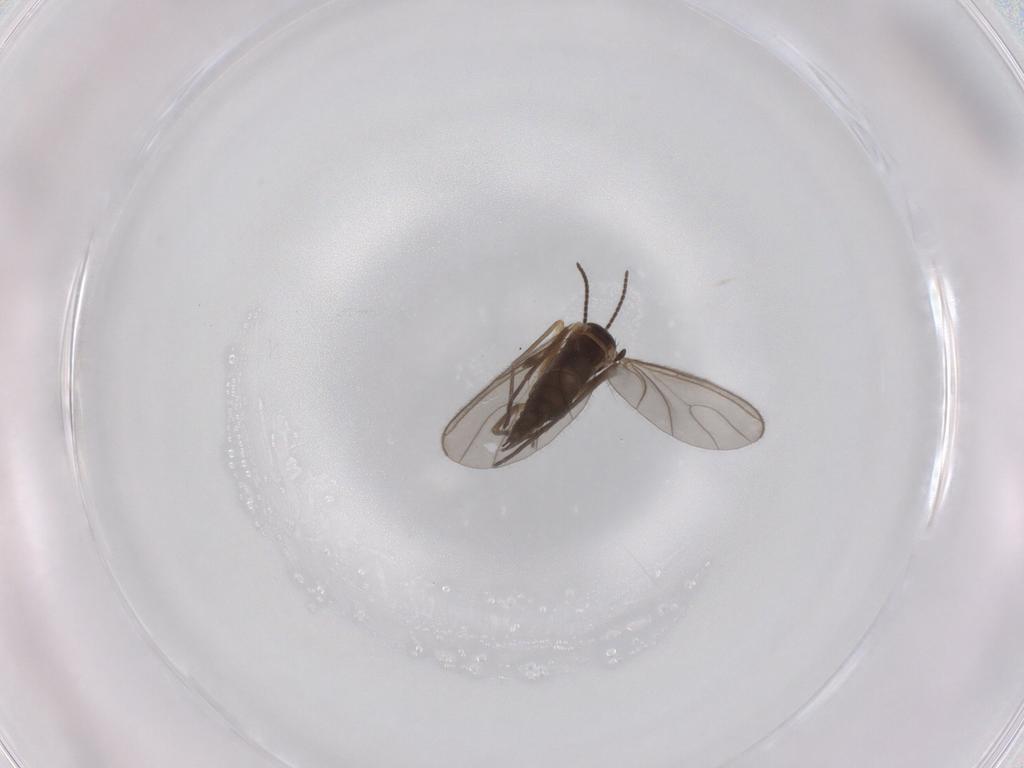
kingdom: Animalia
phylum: Arthropoda
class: Insecta
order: Diptera
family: Sciaridae
